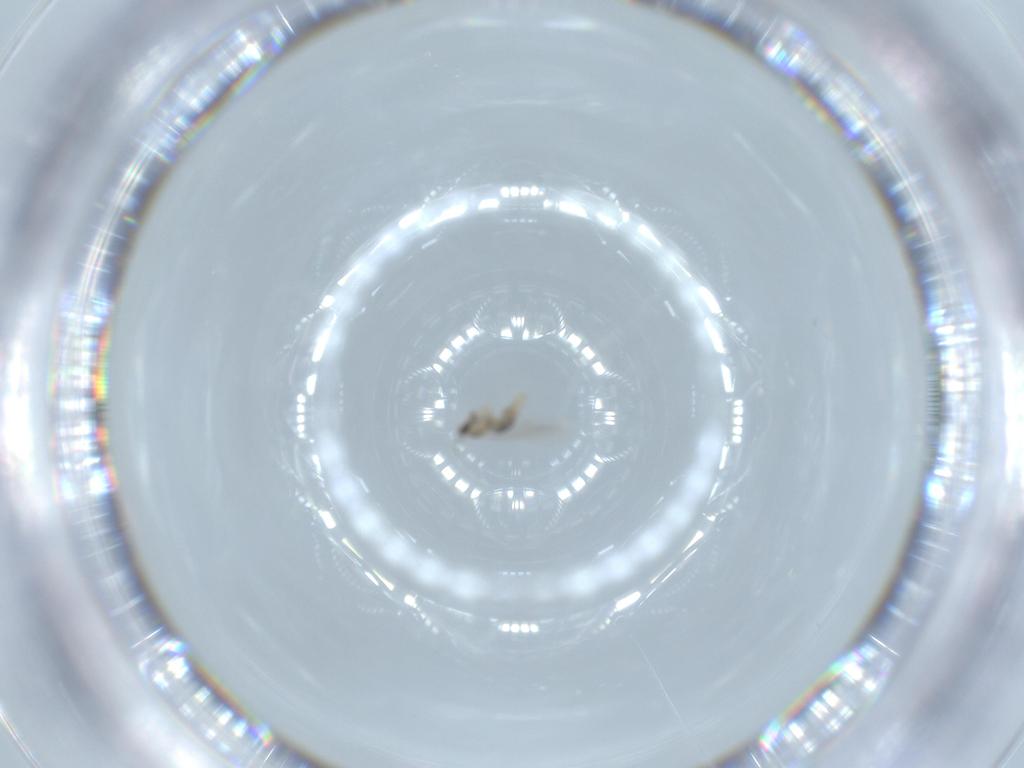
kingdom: Animalia
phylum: Arthropoda
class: Insecta
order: Diptera
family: Cecidomyiidae
